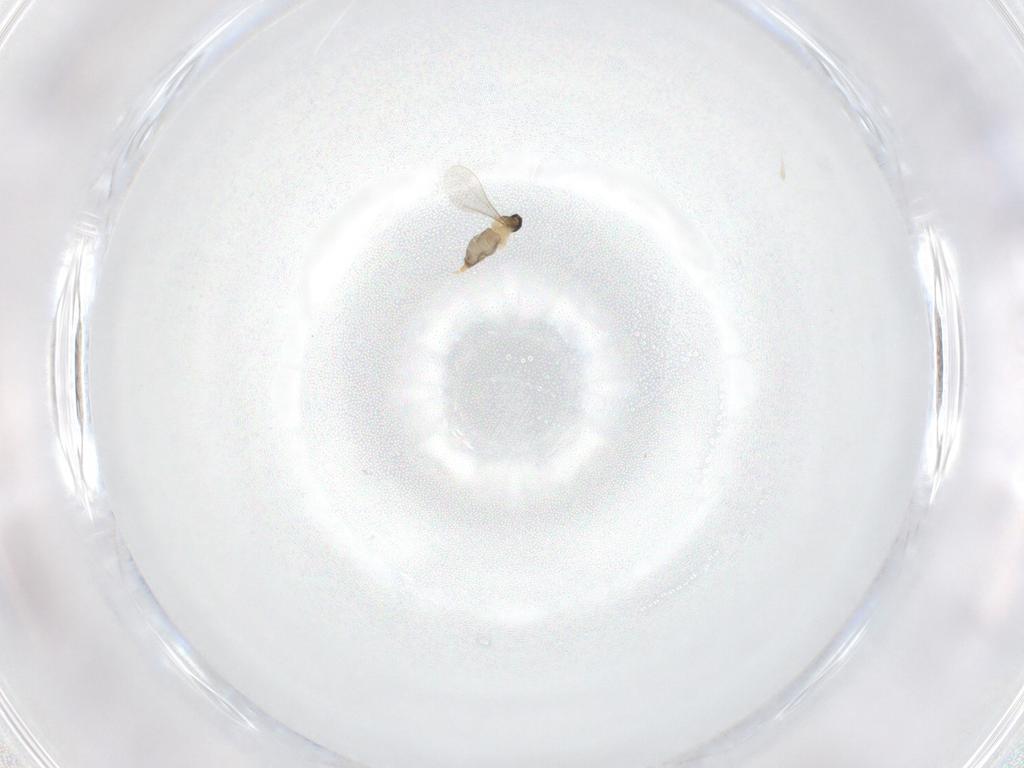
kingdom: Animalia
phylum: Arthropoda
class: Insecta
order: Diptera
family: Cecidomyiidae
